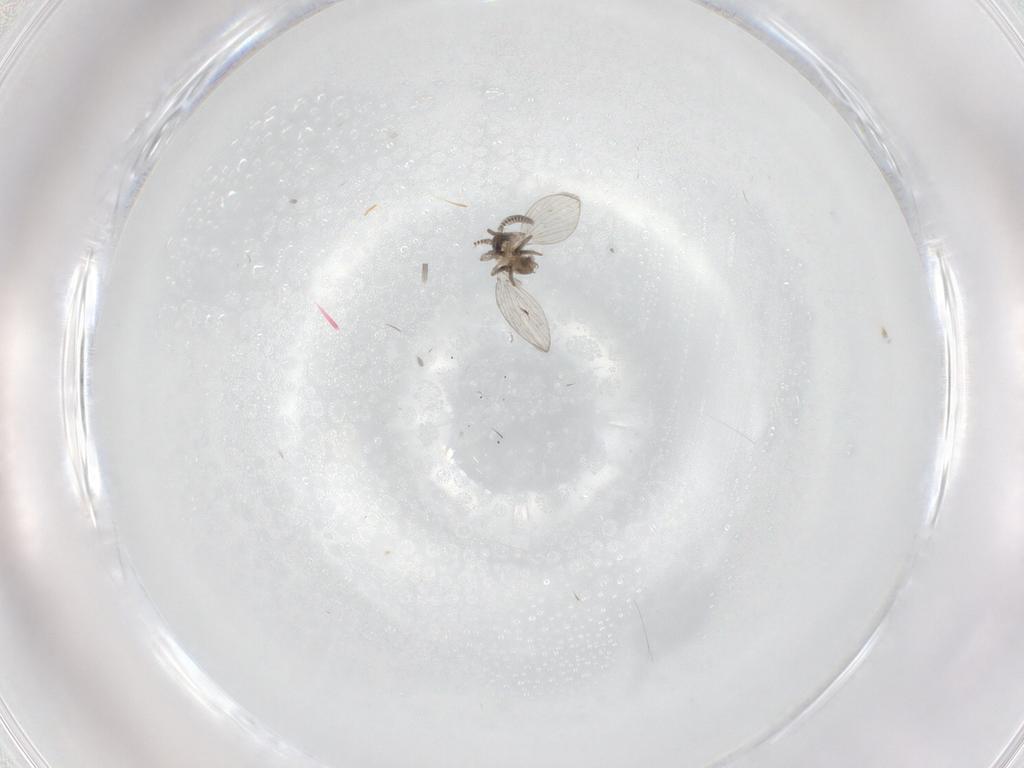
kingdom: Animalia
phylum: Arthropoda
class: Insecta
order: Diptera
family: Psychodidae
